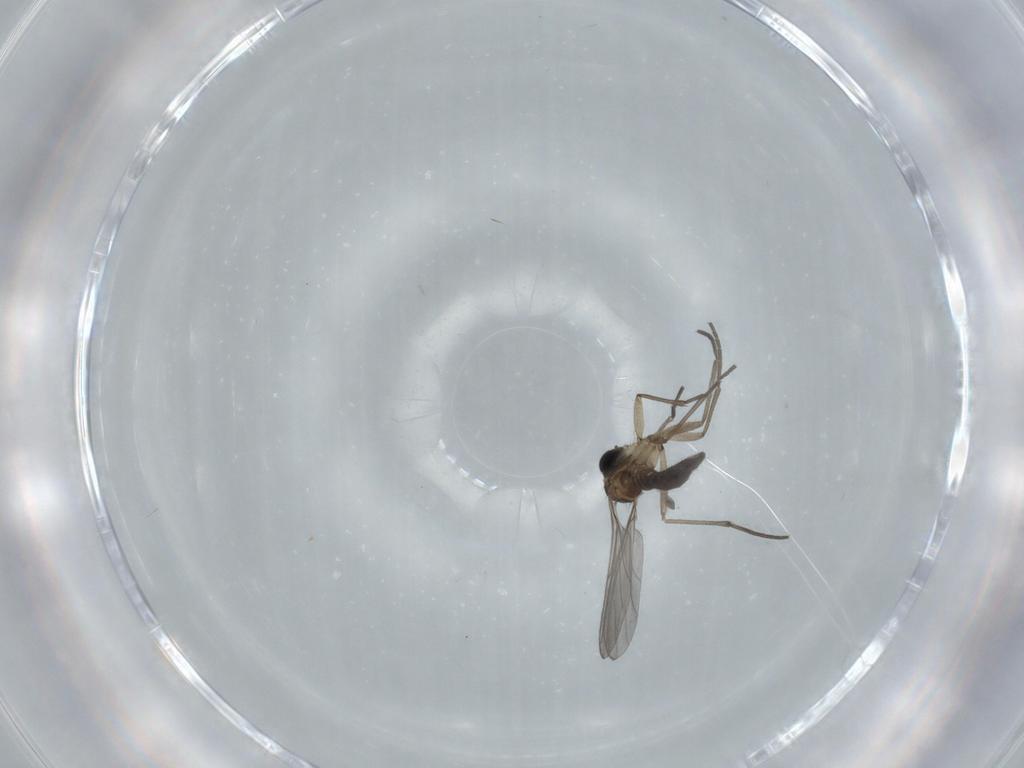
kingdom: Animalia
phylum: Arthropoda
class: Insecta
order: Diptera
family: Sciaridae
